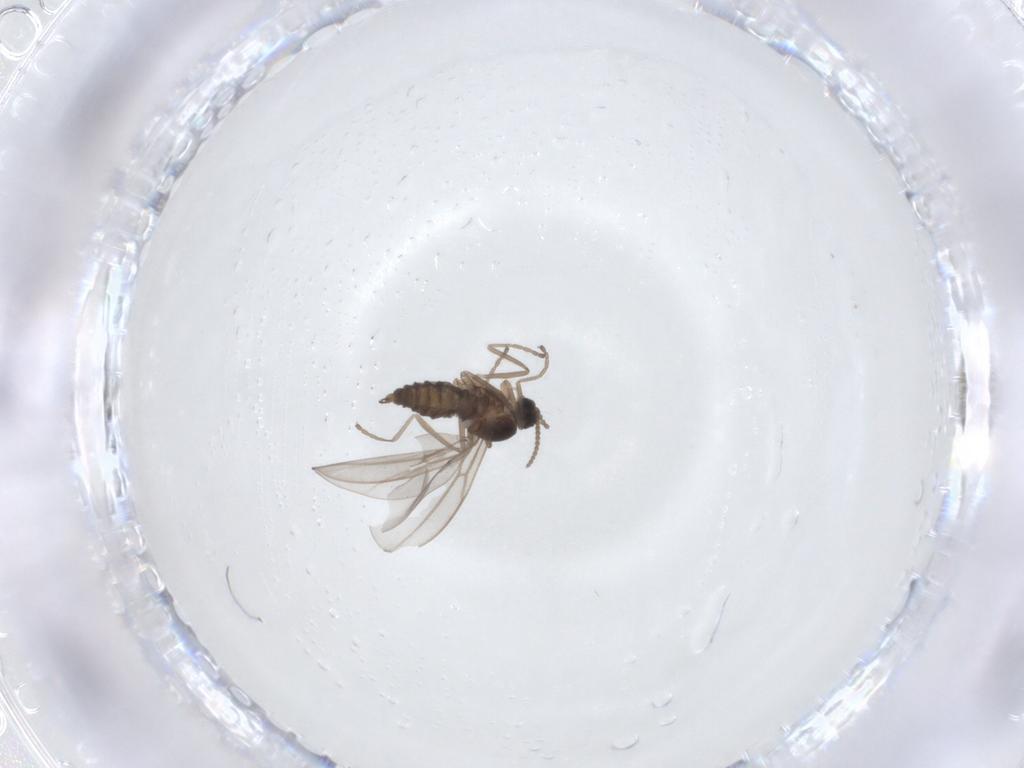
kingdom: Animalia
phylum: Arthropoda
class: Insecta
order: Diptera
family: Cecidomyiidae
